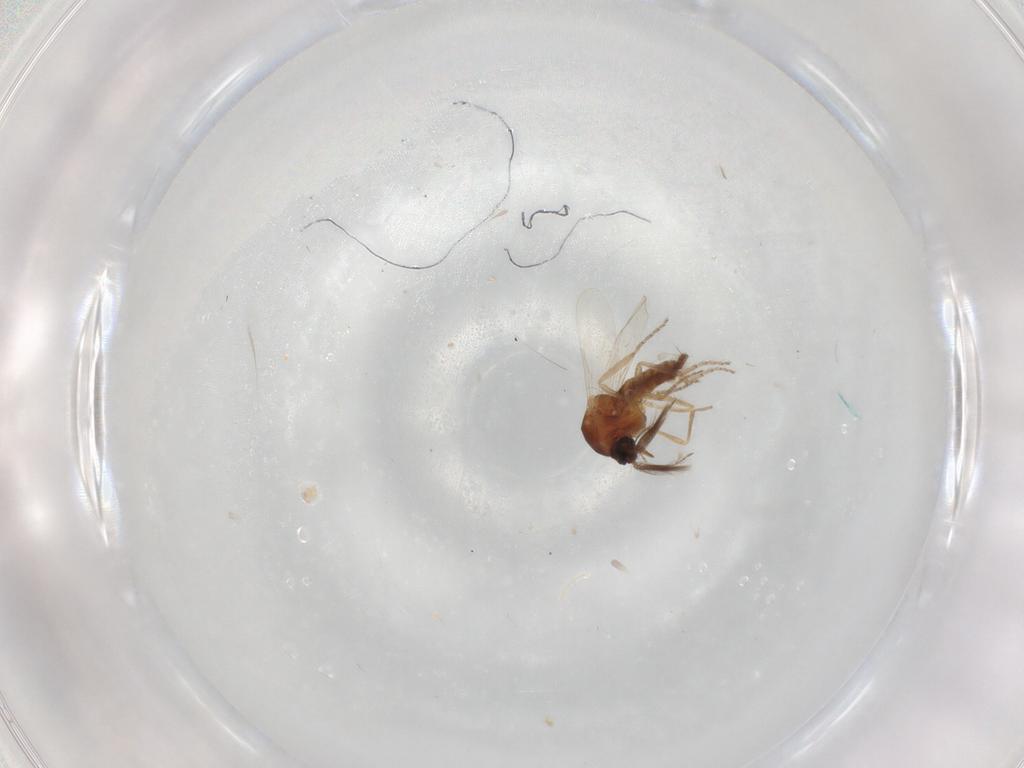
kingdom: Animalia
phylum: Arthropoda
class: Insecta
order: Diptera
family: Ceratopogonidae
